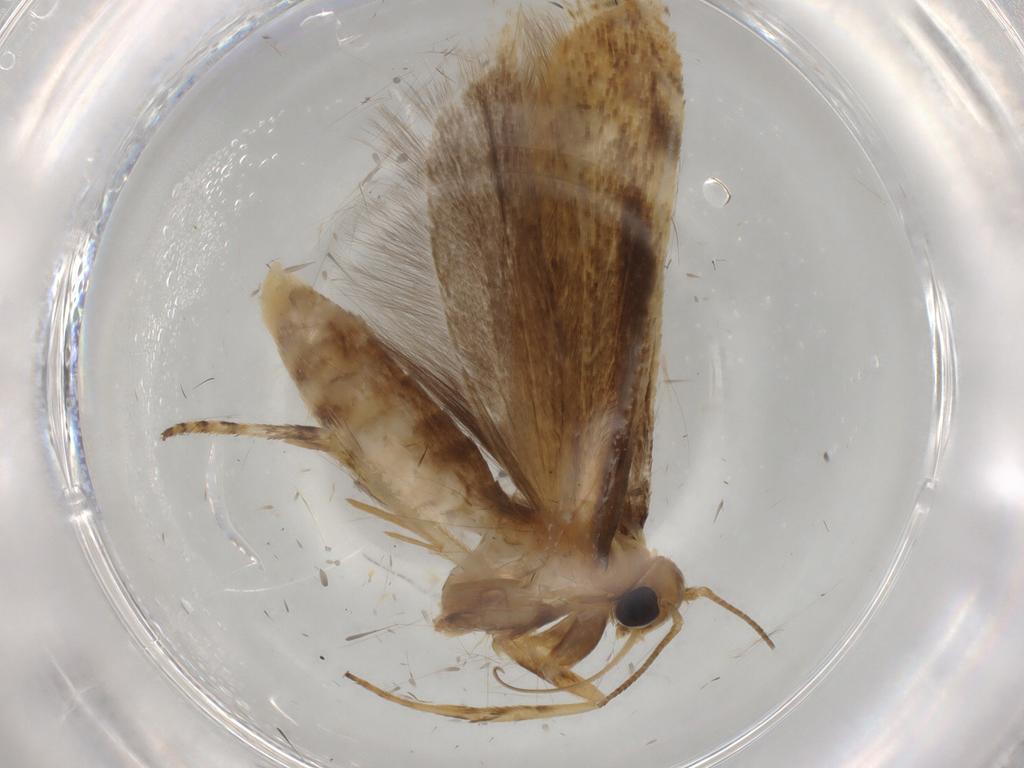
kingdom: Animalia
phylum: Arthropoda
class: Insecta
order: Lepidoptera
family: Gelechiidae
